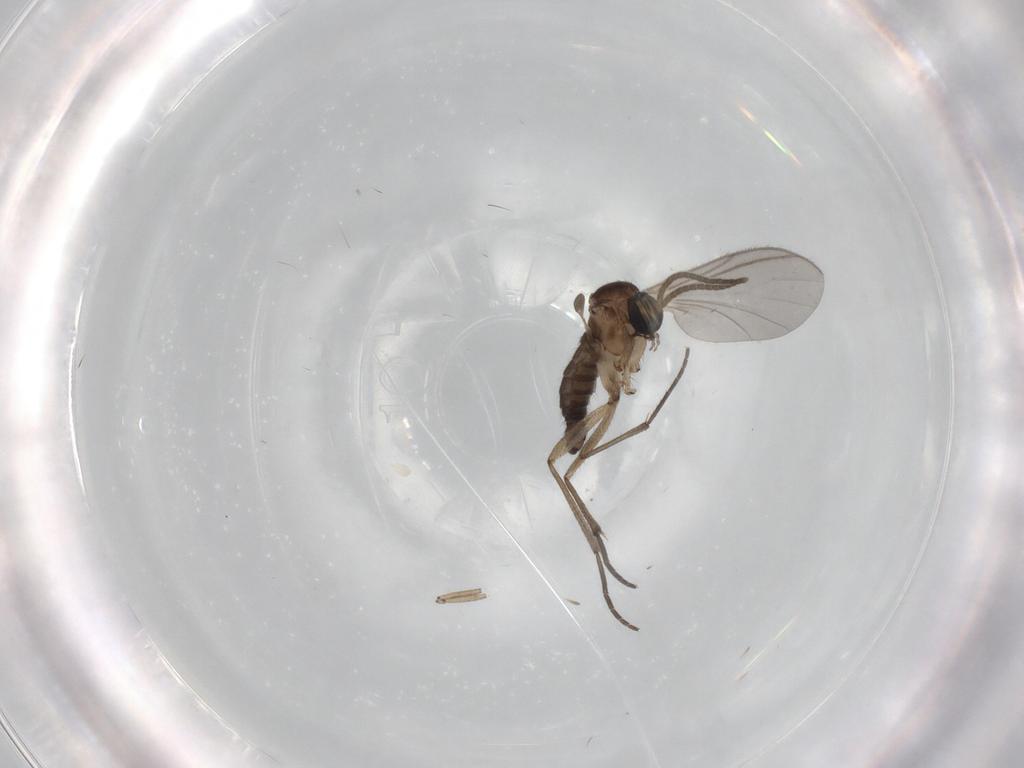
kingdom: Animalia
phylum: Arthropoda
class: Insecta
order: Diptera
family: Sciaridae
